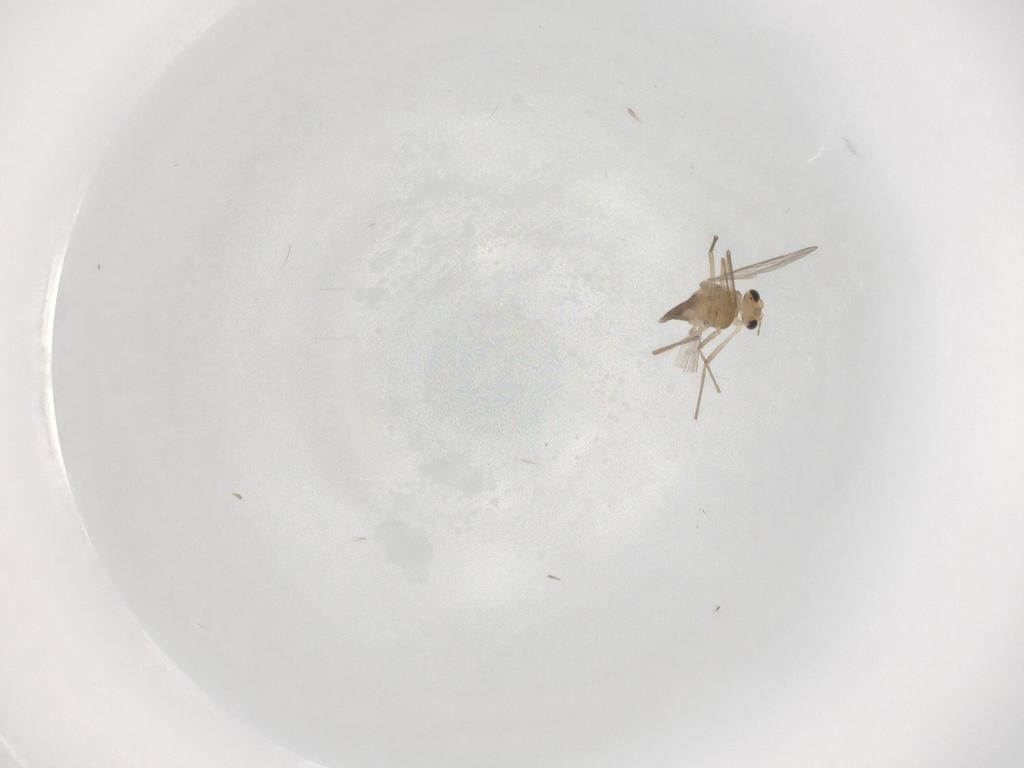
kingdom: Animalia
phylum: Arthropoda
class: Insecta
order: Diptera
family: Chironomidae
